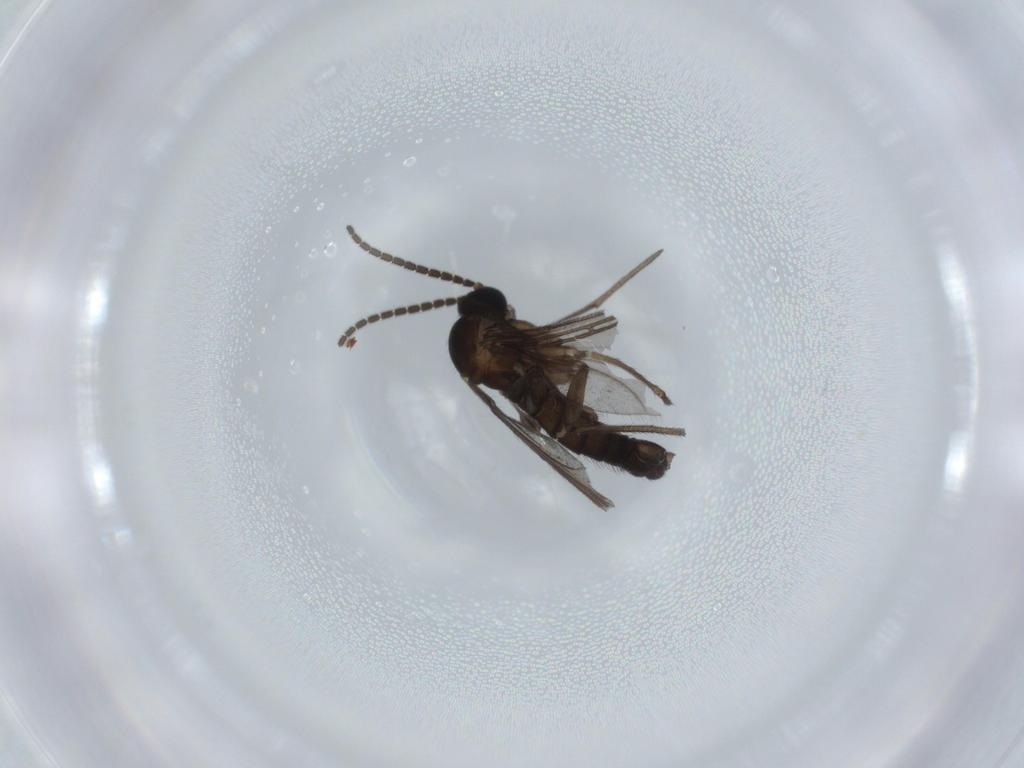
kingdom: Animalia
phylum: Arthropoda
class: Insecta
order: Diptera
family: Sciaridae
